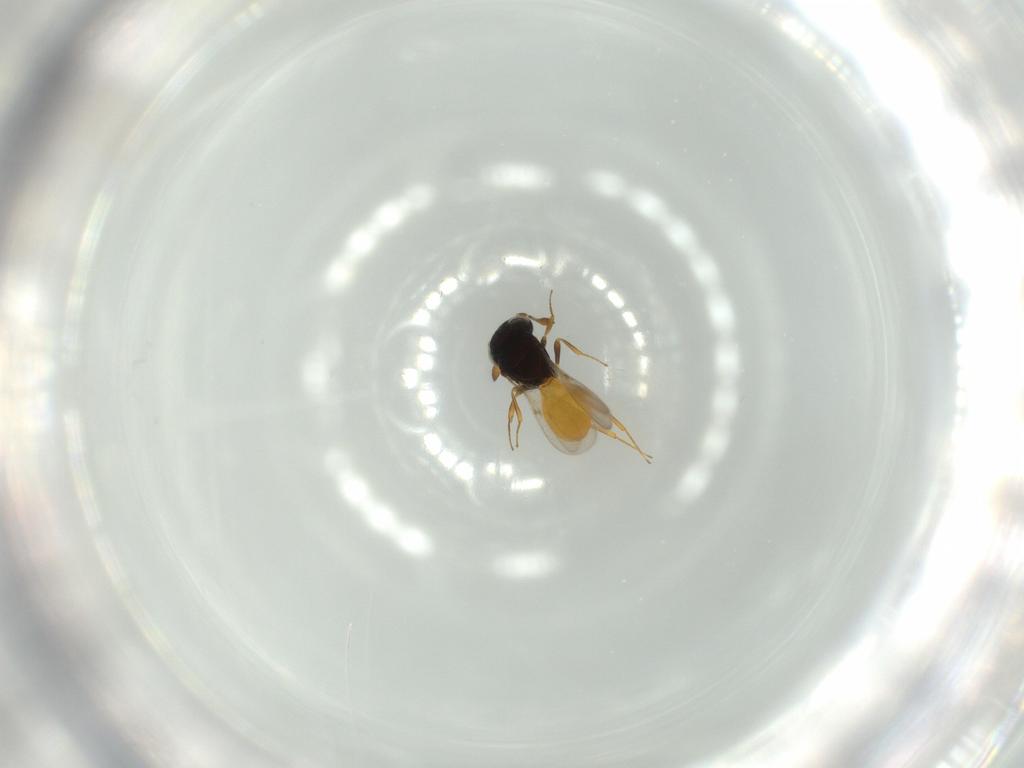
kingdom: Animalia
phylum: Arthropoda
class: Insecta
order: Hymenoptera
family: Scelionidae
